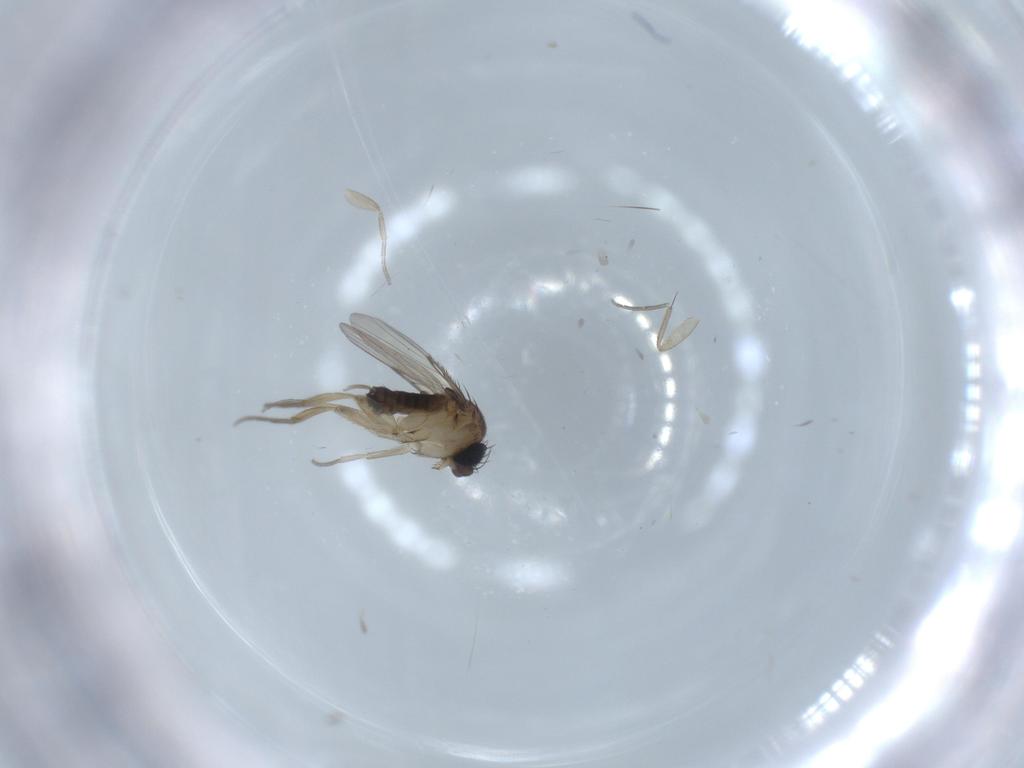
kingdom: Animalia
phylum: Arthropoda
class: Insecta
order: Diptera
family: Phoridae
